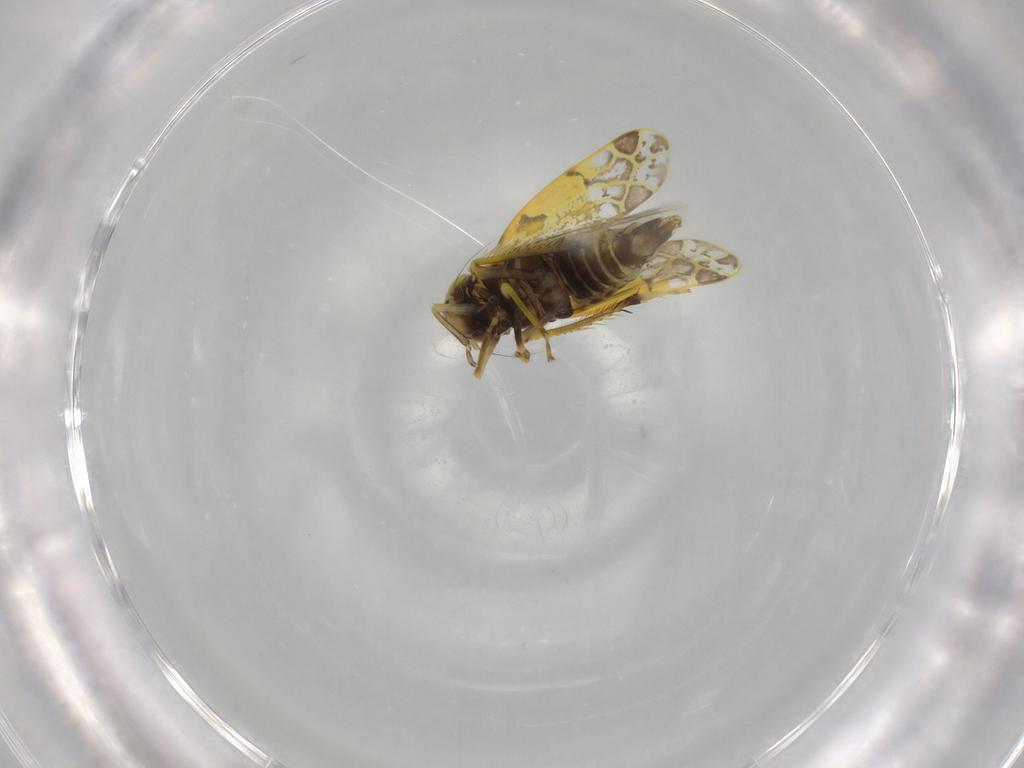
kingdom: Animalia
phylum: Arthropoda
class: Insecta
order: Hemiptera
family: Cicadellidae
